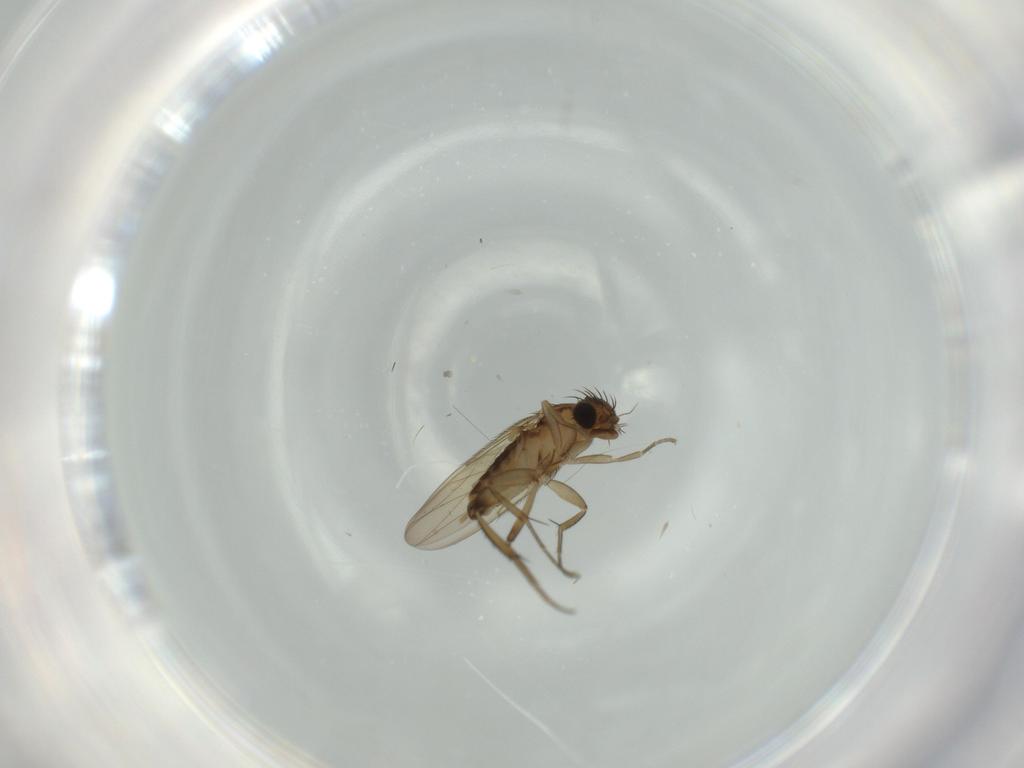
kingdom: Animalia
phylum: Arthropoda
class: Insecta
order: Diptera
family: Phoridae
